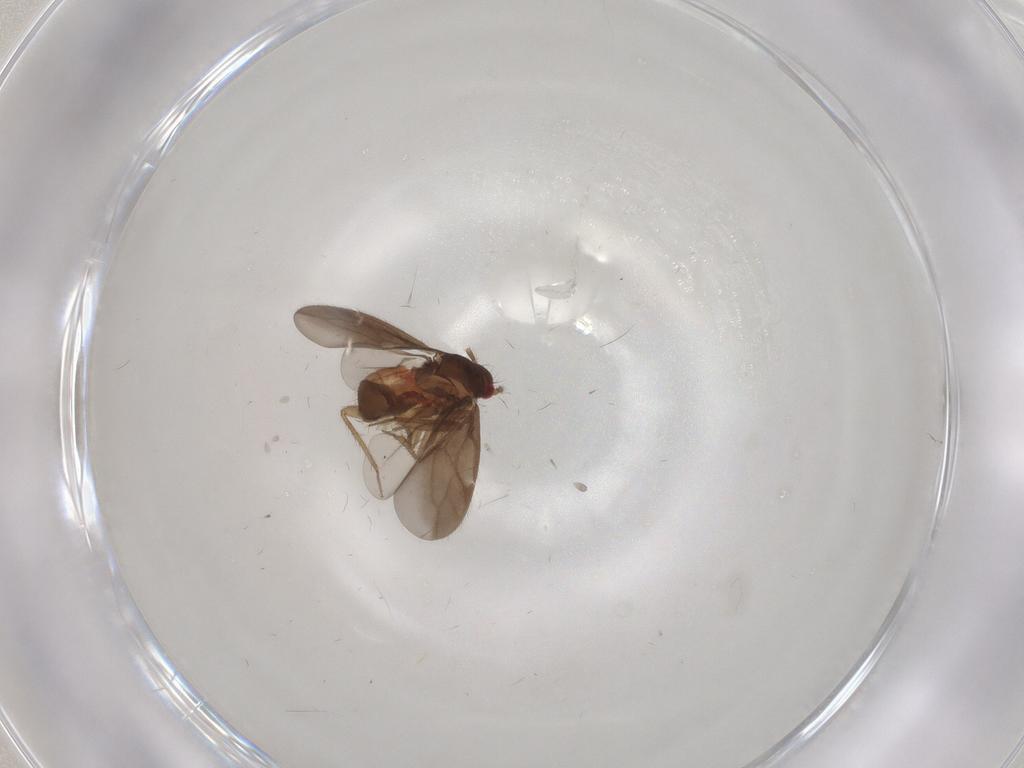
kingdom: Animalia
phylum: Arthropoda
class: Insecta
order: Hemiptera
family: Ceratocombidae
